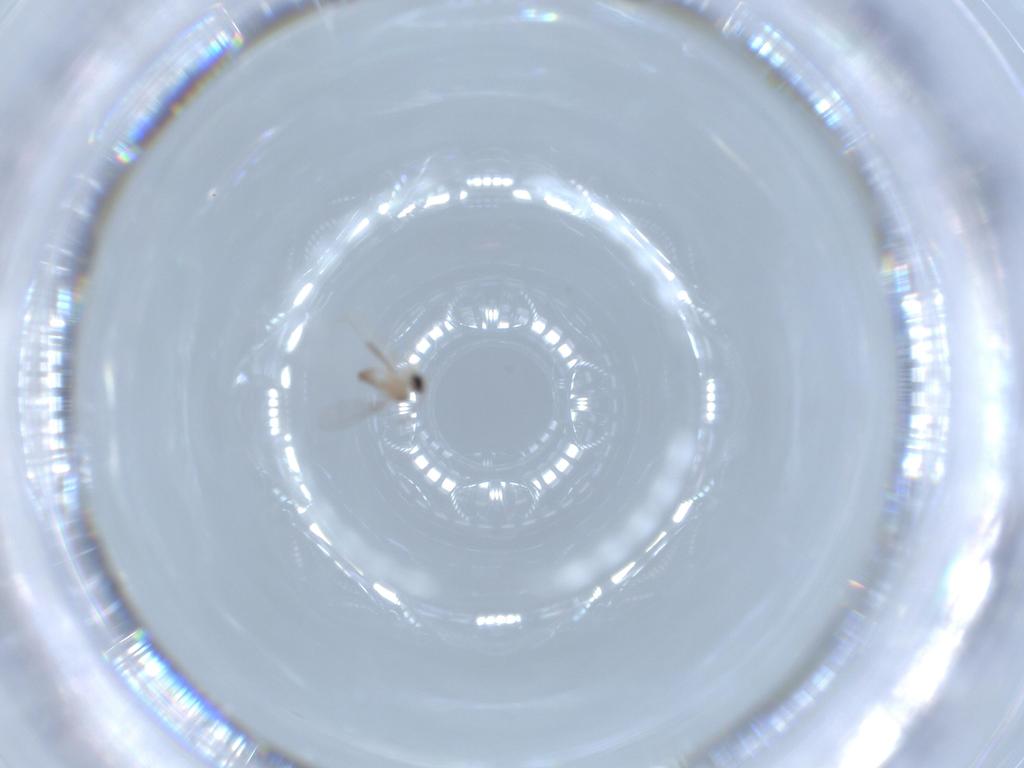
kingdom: Animalia
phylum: Arthropoda
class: Insecta
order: Diptera
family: Cecidomyiidae
